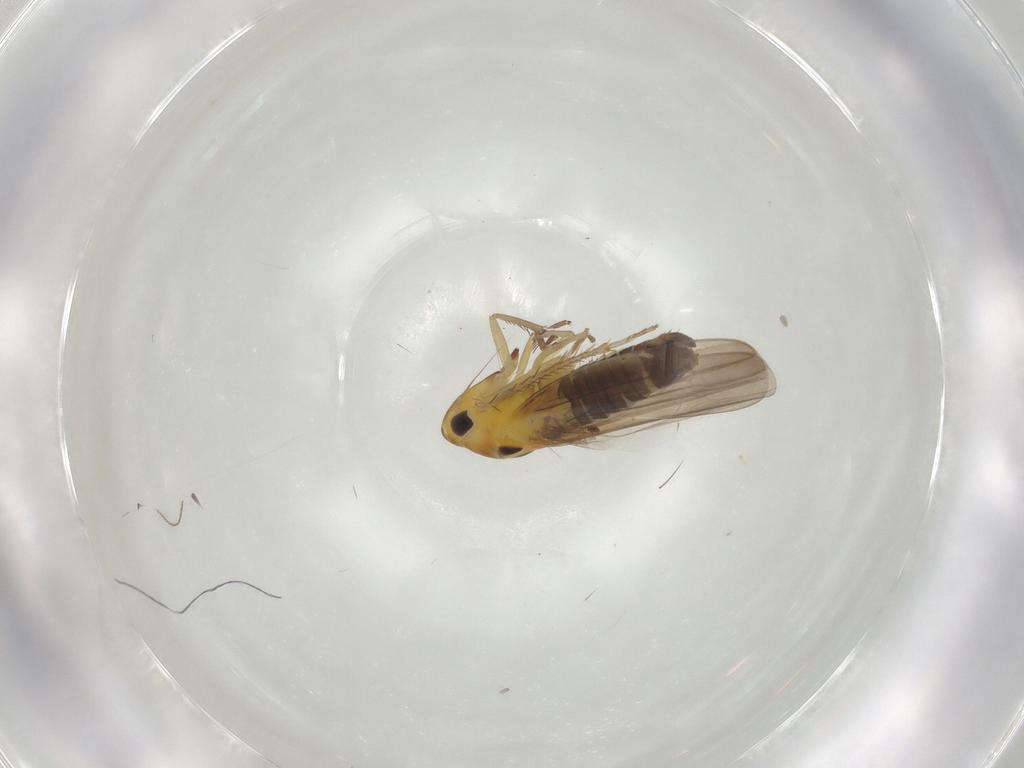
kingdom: Animalia
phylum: Arthropoda
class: Insecta
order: Hemiptera
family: Cicadellidae
